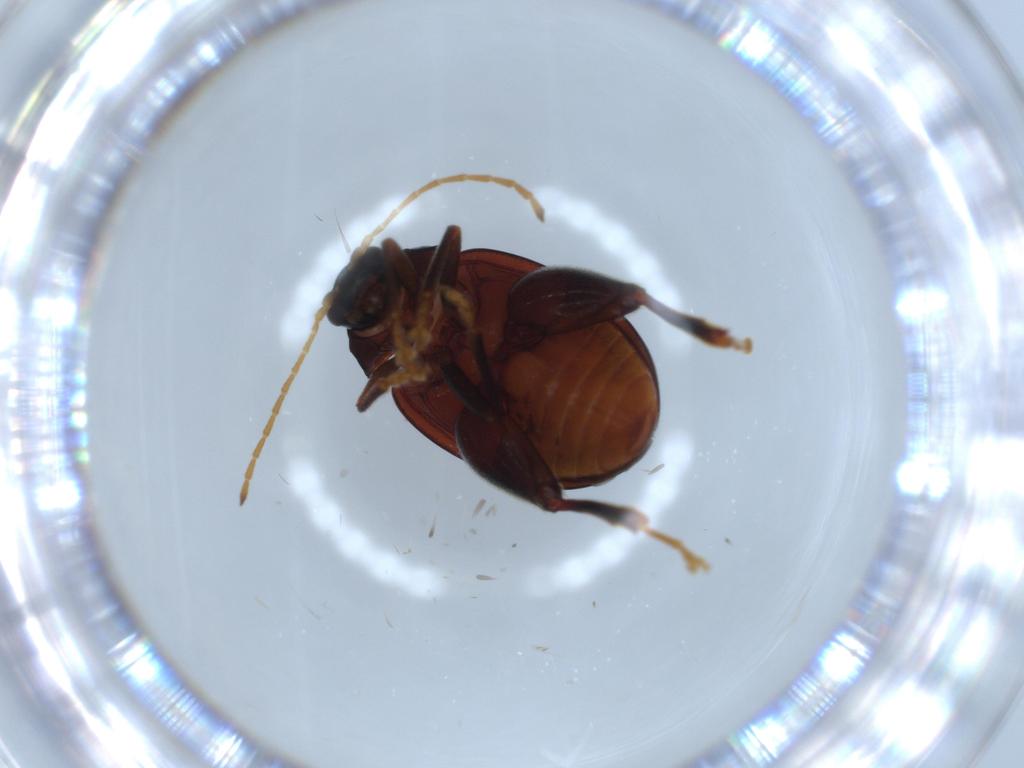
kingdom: Animalia
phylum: Arthropoda
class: Insecta
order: Coleoptera
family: Chrysomelidae
